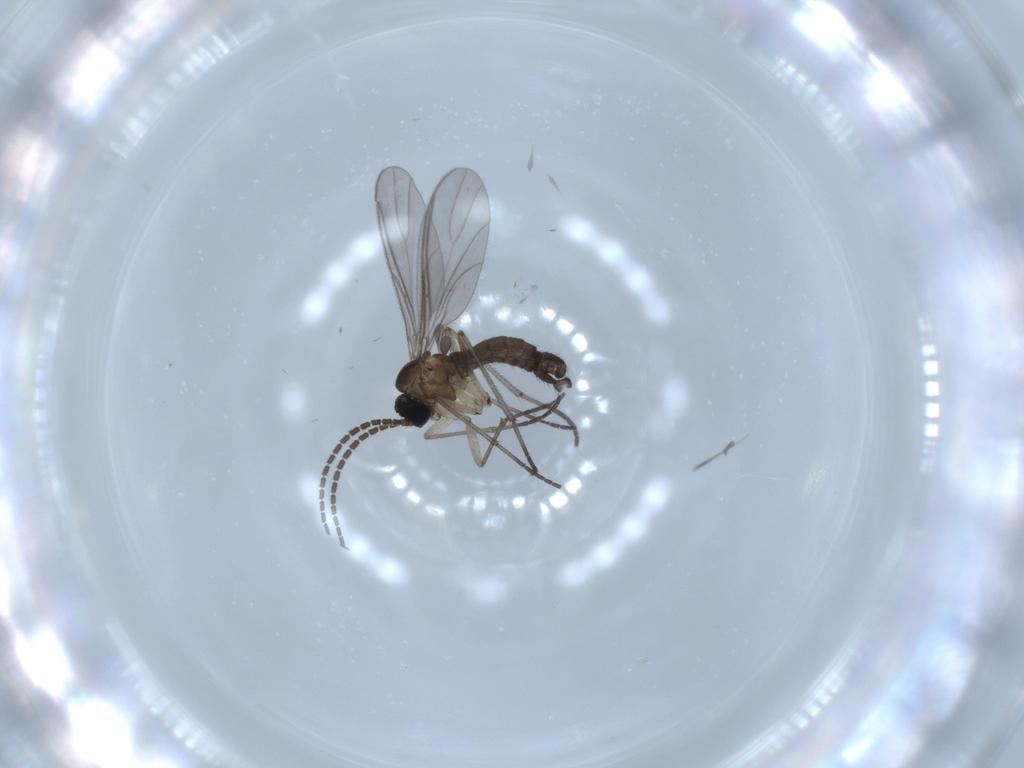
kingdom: Animalia
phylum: Arthropoda
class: Insecta
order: Diptera
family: Sciaridae
